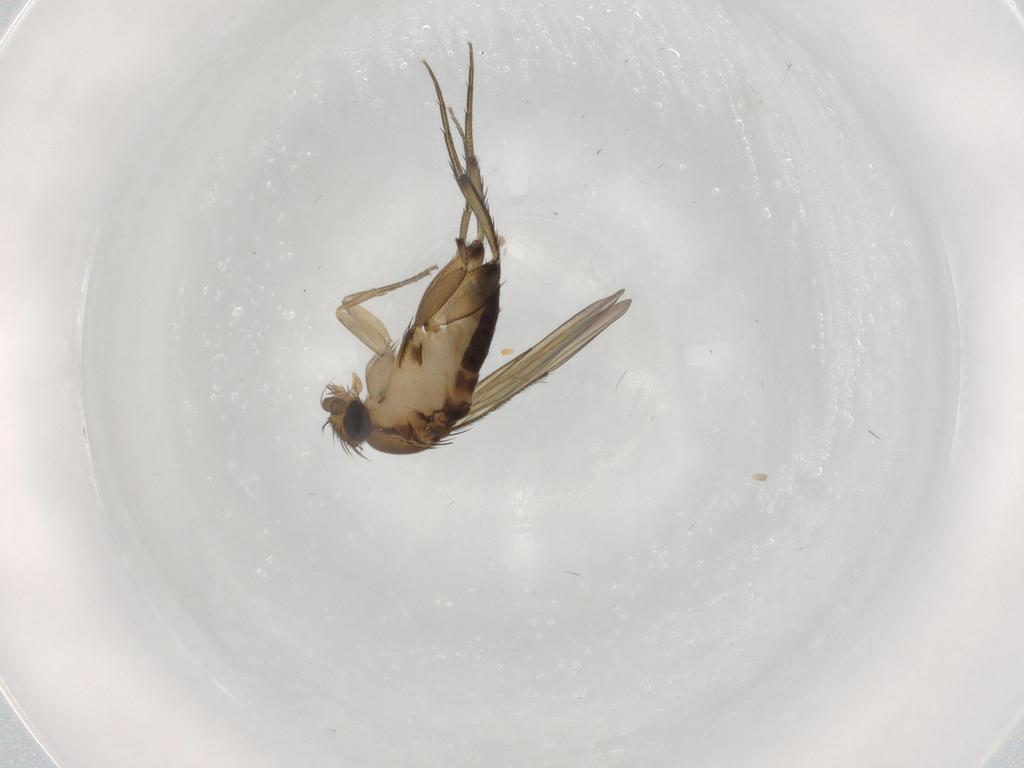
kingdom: Animalia
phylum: Arthropoda
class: Insecta
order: Diptera
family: Phoridae
